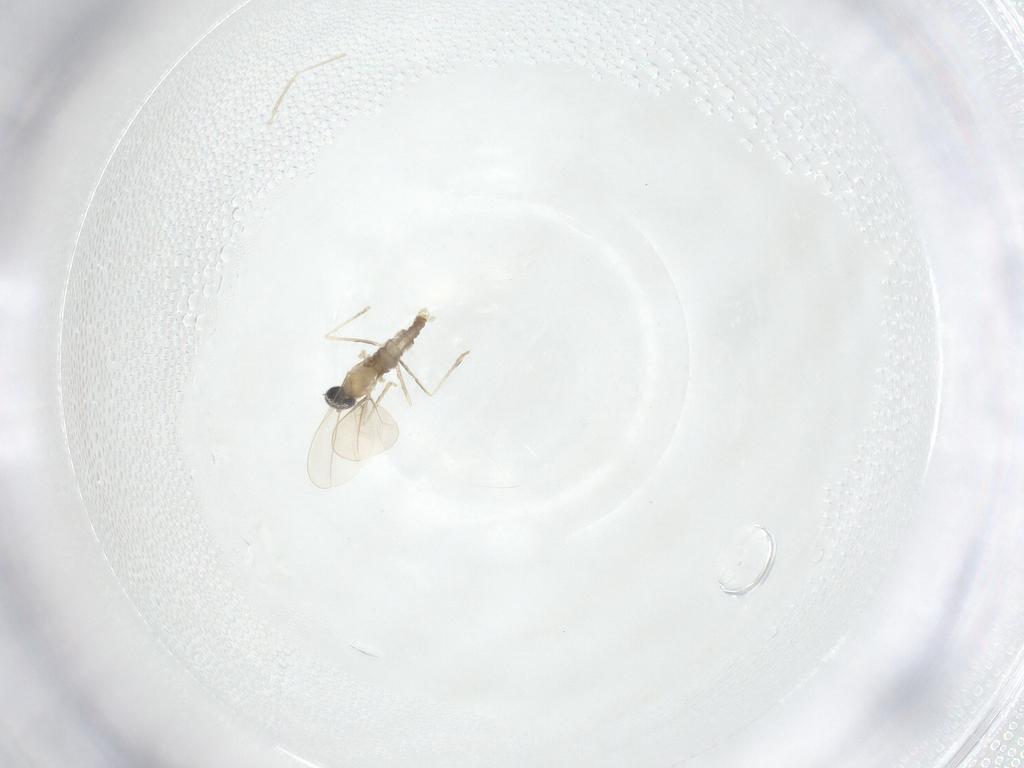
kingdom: Animalia
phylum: Arthropoda
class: Insecta
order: Diptera
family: Cecidomyiidae
